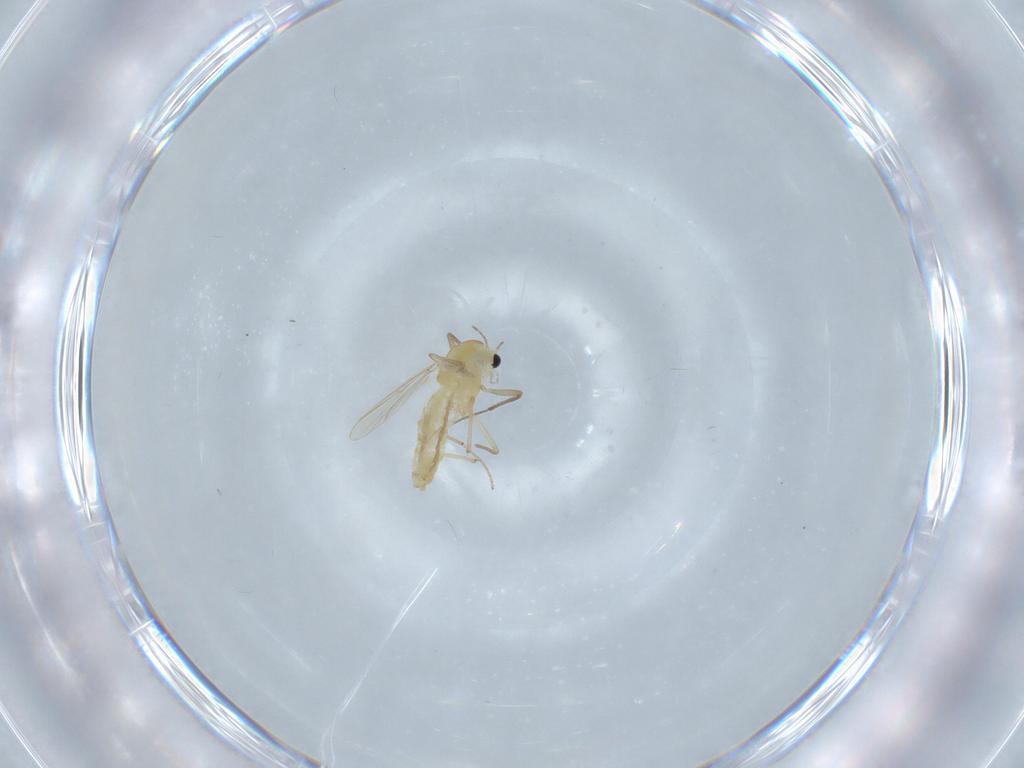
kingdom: Animalia
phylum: Arthropoda
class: Insecta
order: Diptera
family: Chironomidae
